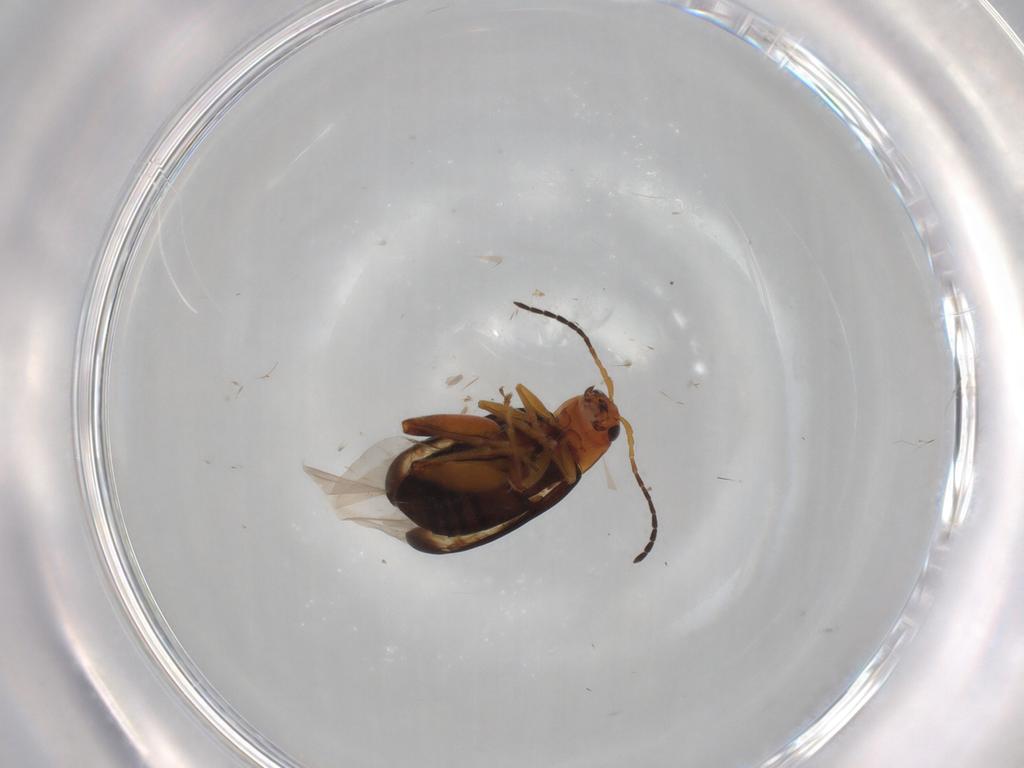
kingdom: Animalia
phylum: Arthropoda
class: Insecta
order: Coleoptera
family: Chrysomelidae
